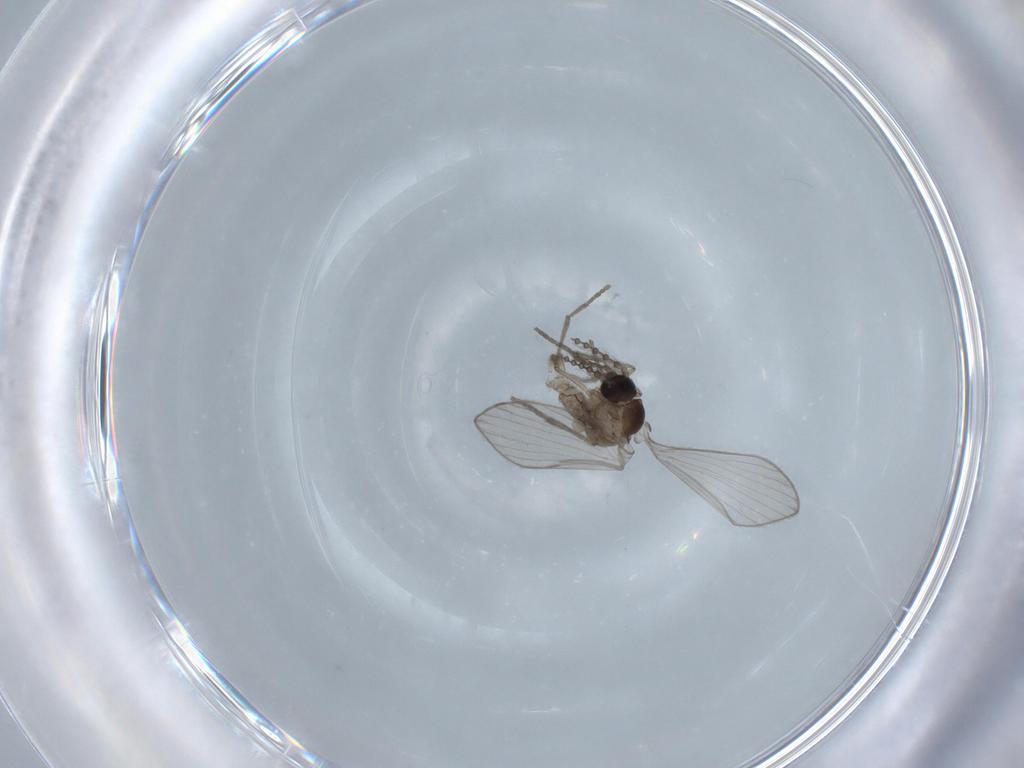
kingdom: Animalia
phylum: Arthropoda
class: Insecta
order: Diptera
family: Psychodidae
